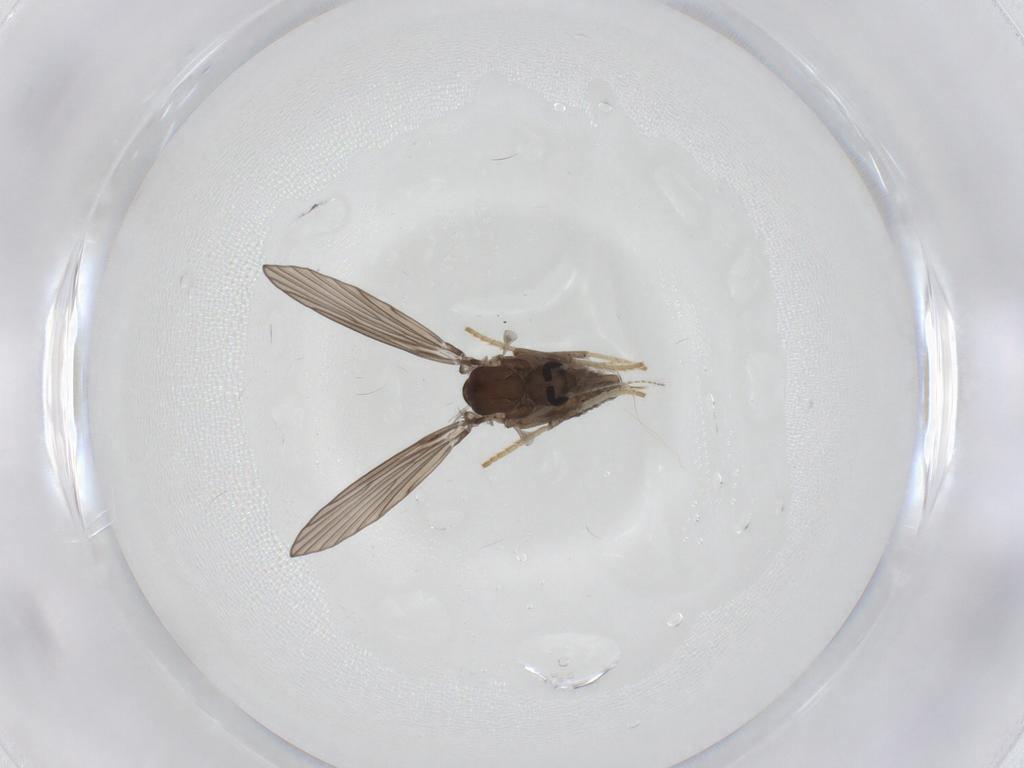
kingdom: Animalia
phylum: Arthropoda
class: Insecta
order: Diptera
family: Psychodidae
